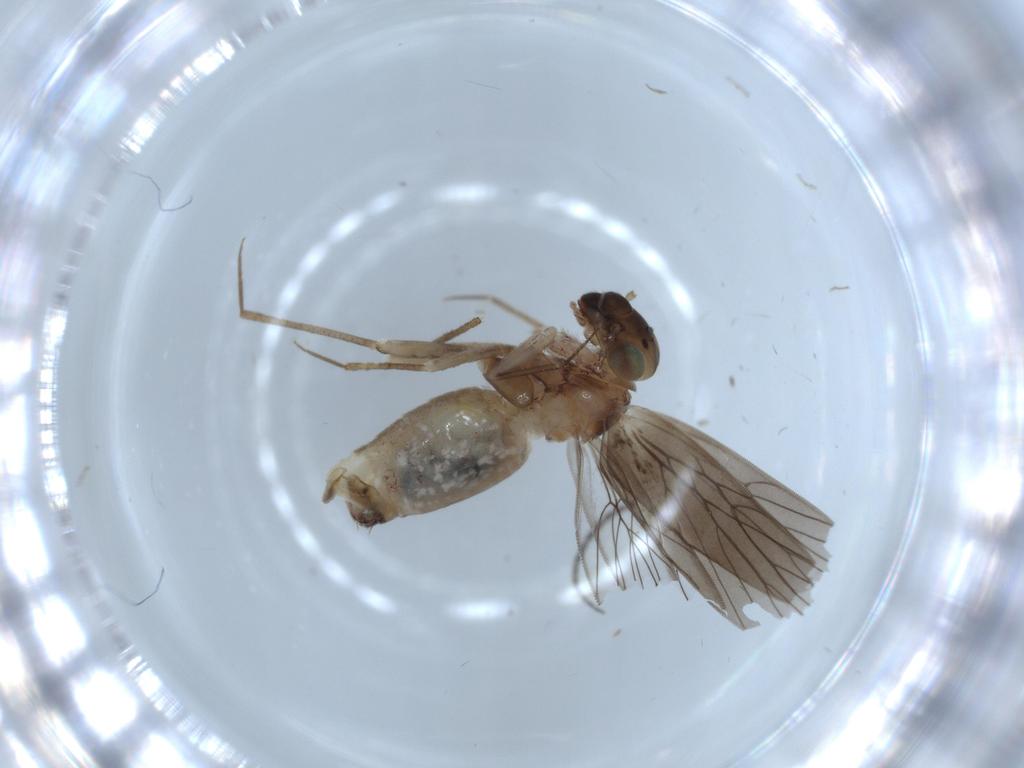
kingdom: Animalia
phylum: Arthropoda
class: Insecta
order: Psocodea
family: Lepidopsocidae
